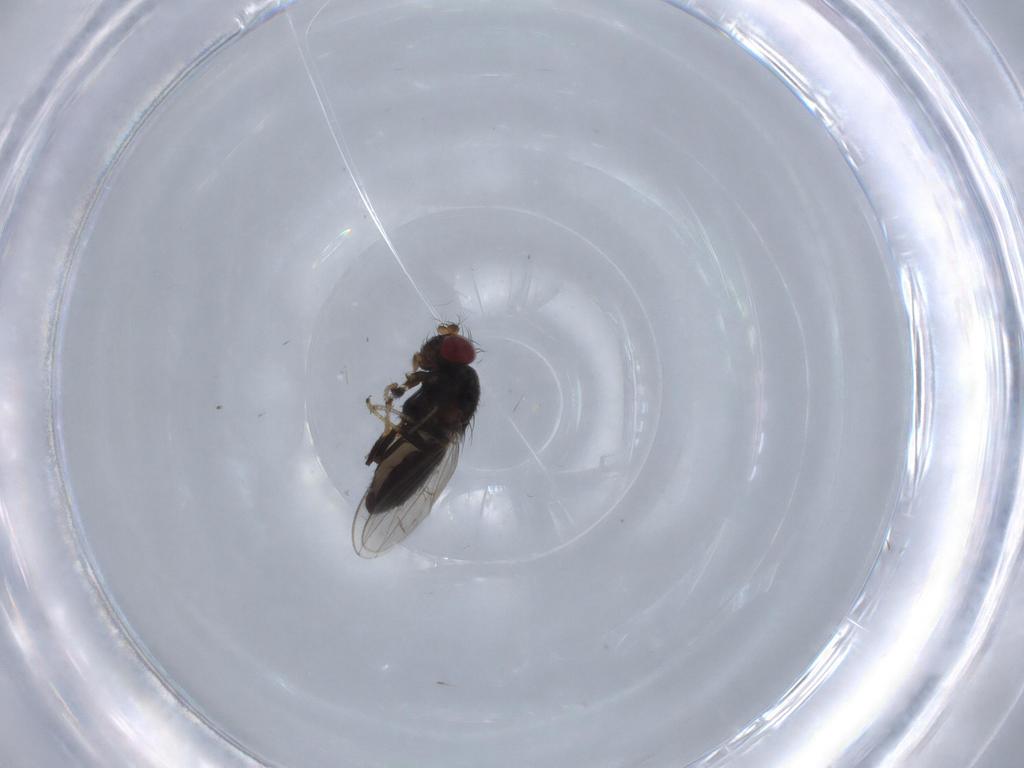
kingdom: Animalia
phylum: Arthropoda
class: Insecta
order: Diptera
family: Ephydridae
